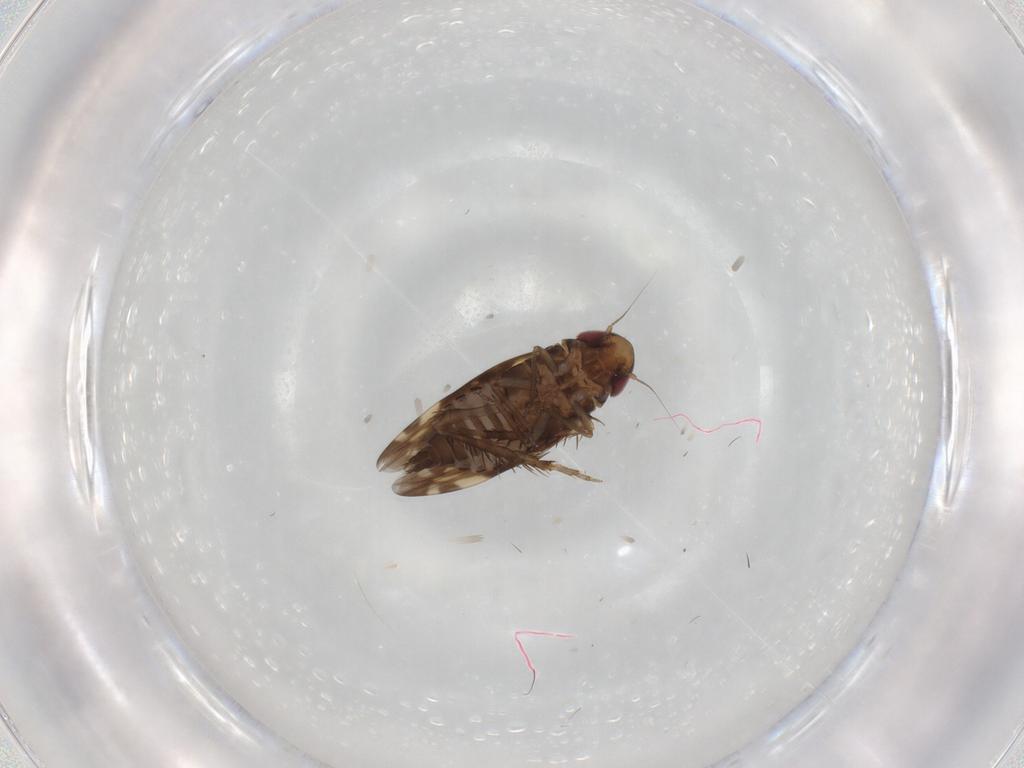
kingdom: Animalia
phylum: Arthropoda
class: Insecta
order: Hemiptera
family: Cicadellidae
